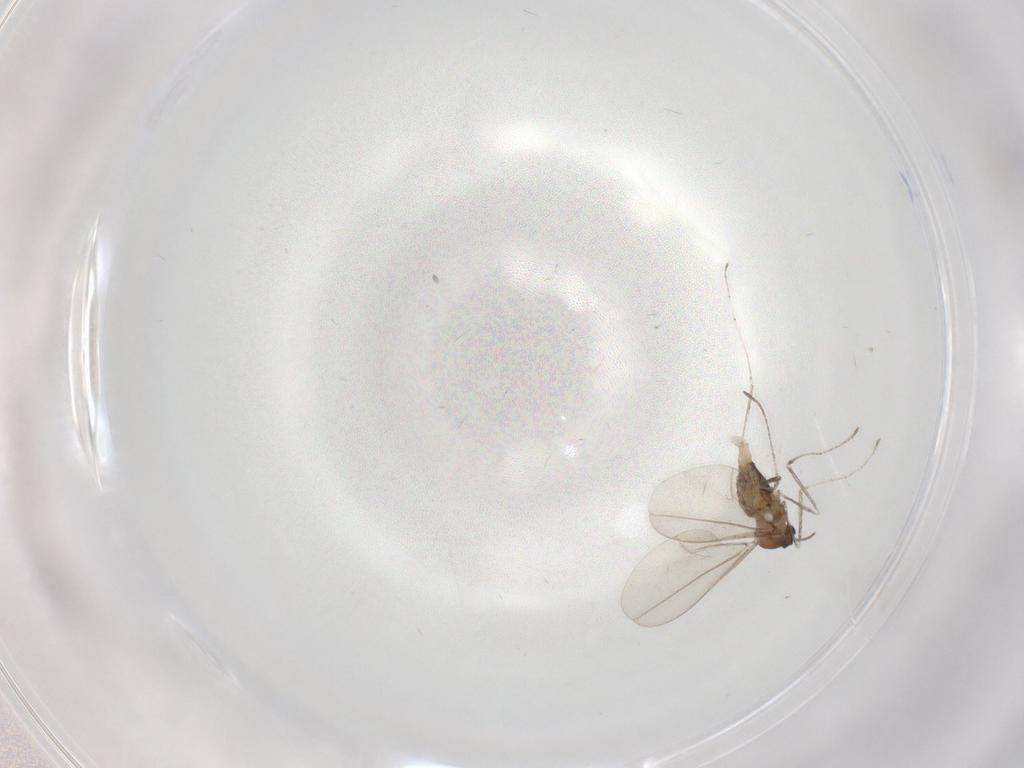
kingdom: Animalia
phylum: Arthropoda
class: Insecta
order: Diptera
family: Cecidomyiidae
